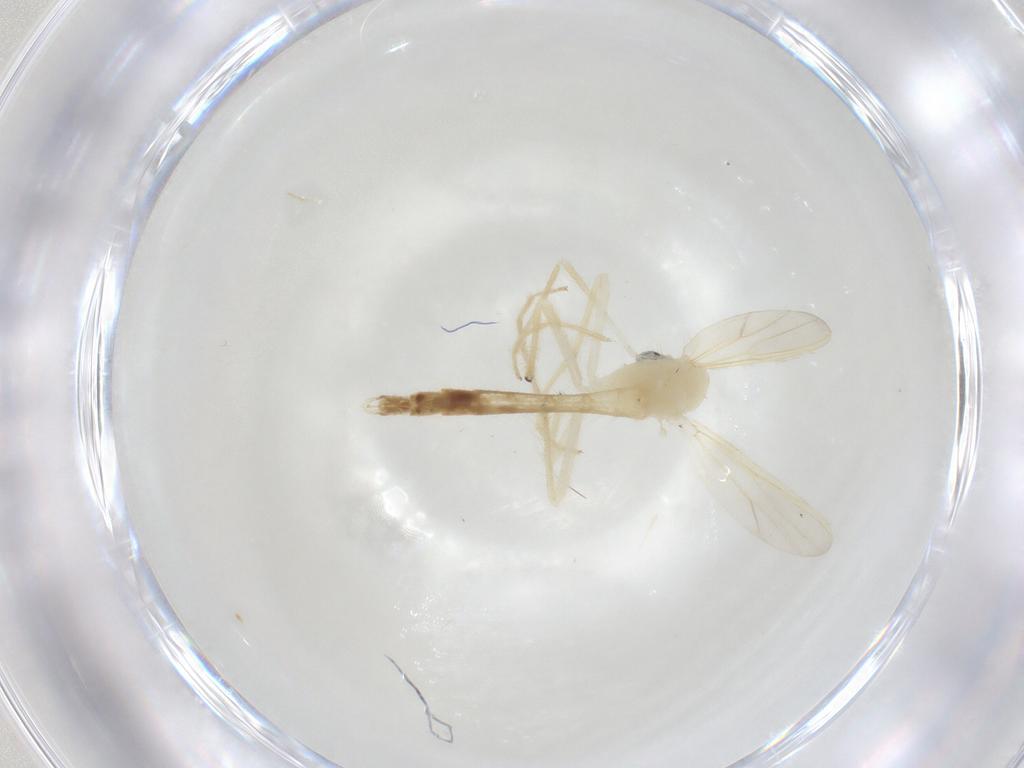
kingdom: Animalia
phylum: Arthropoda
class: Insecta
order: Diptera
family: Chironomidae
